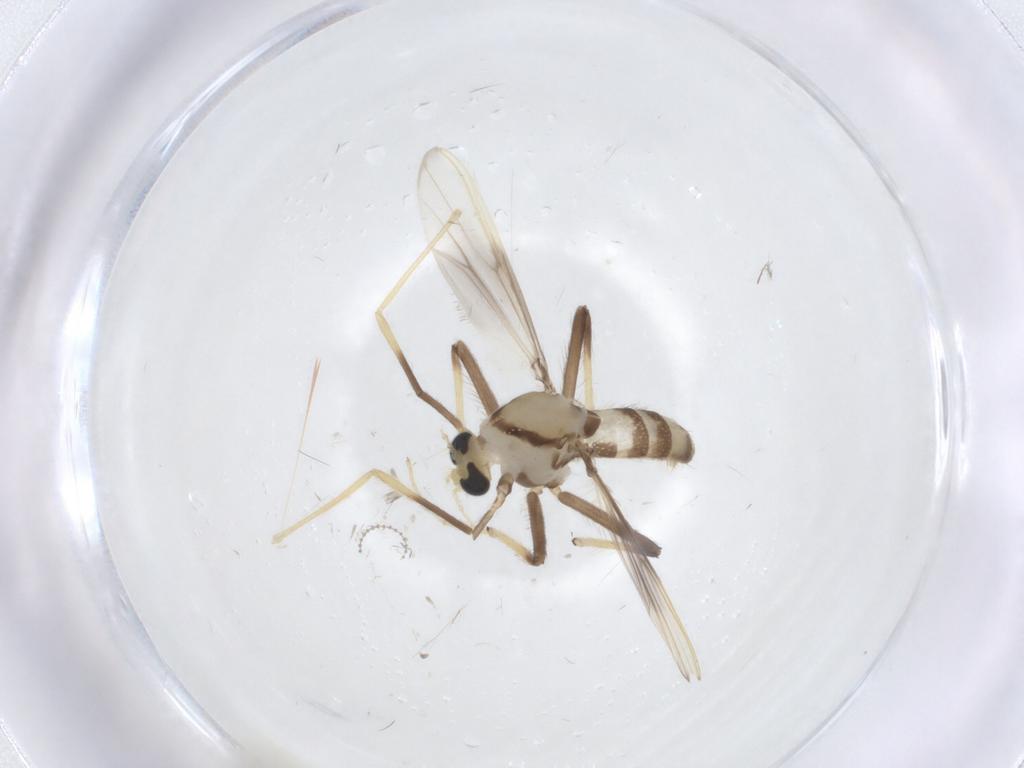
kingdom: Animalia
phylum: Arthropoda
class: Insecta
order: Diptera
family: Chironomidae
